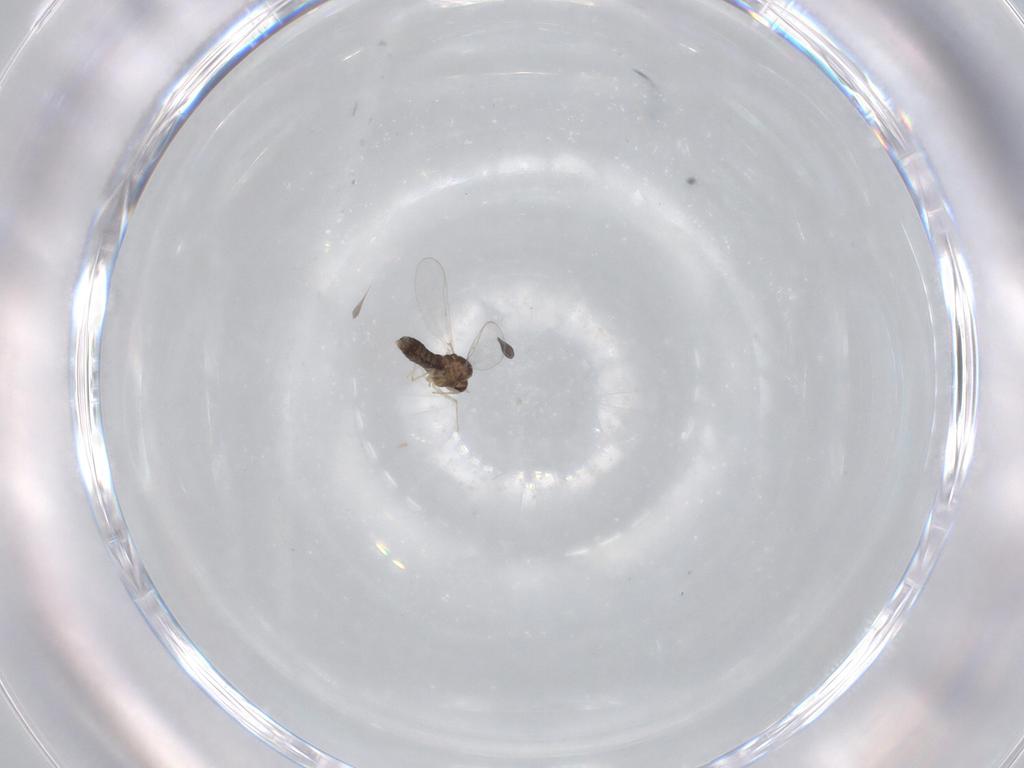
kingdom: Animalia
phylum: Arthropoda
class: Insecta
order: Diptera
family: Chironomidae
